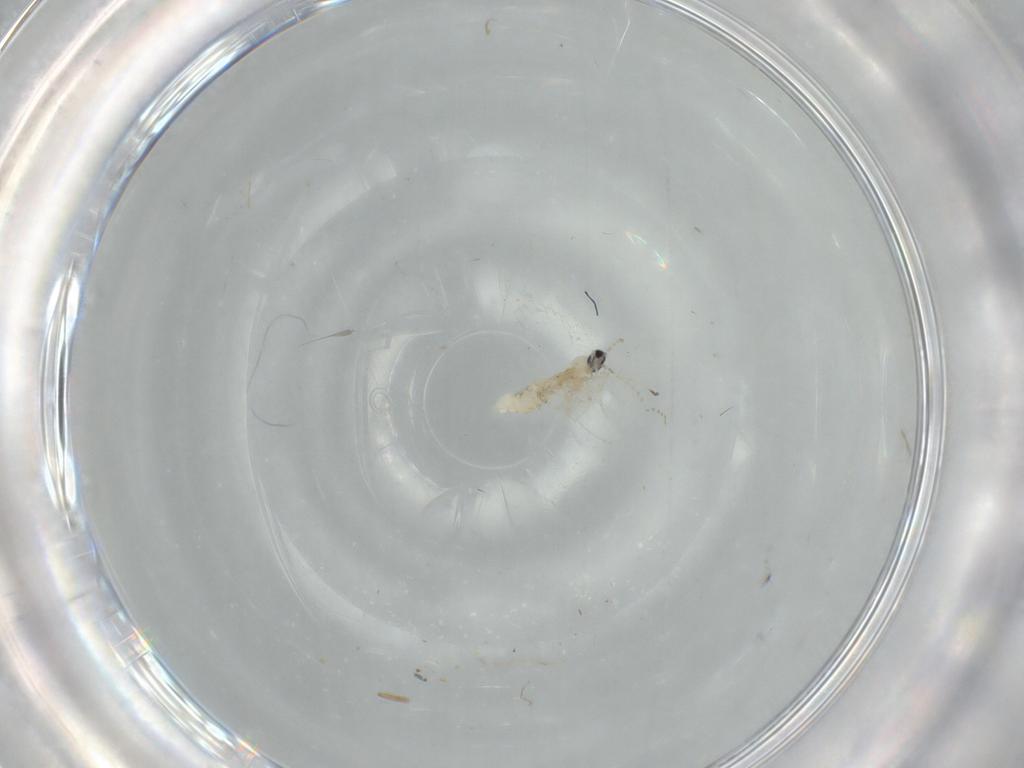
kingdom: Animalia
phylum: Arthropoda
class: Insecta
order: Diptera
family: Cecidomyiidae
